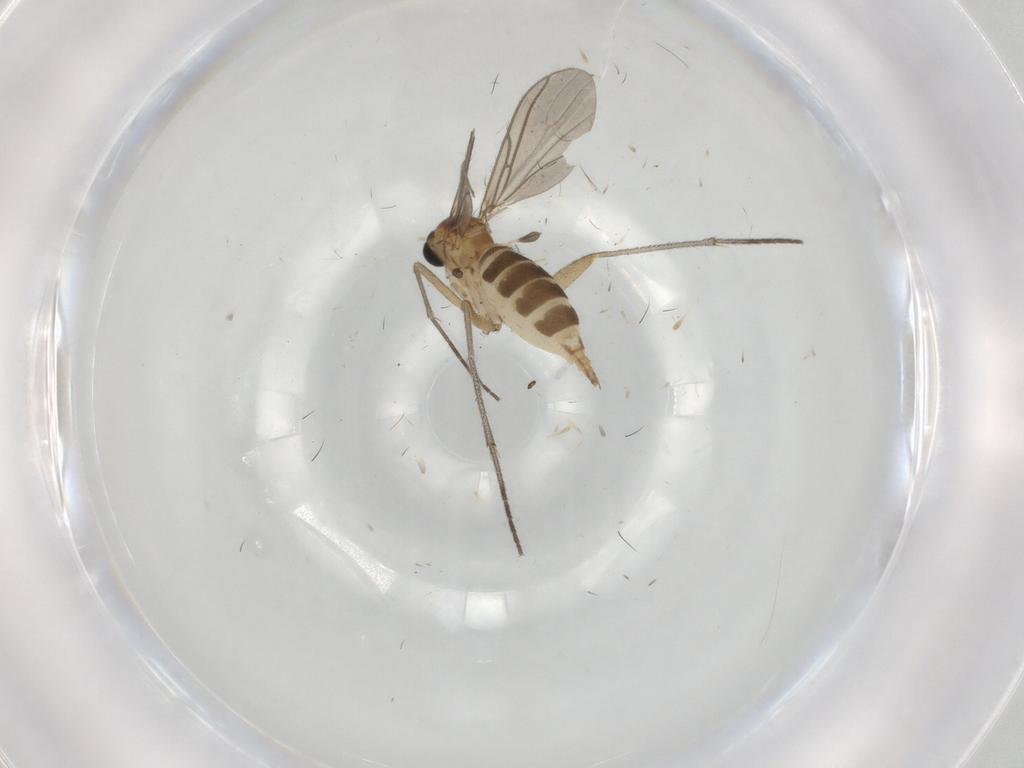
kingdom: Animalia
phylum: Arthropoda
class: Insecta
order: Diptera
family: Sciaridae
